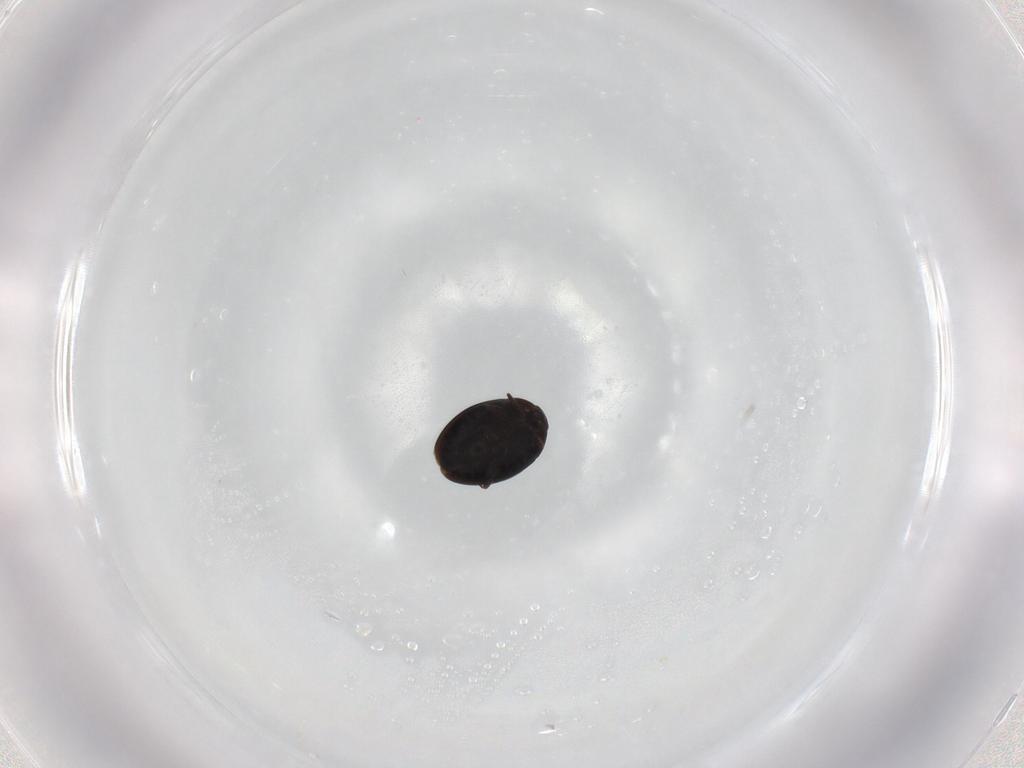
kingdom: Animalia
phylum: Arthropoda
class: Insecta
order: Coleoptera
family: Corylophidae
